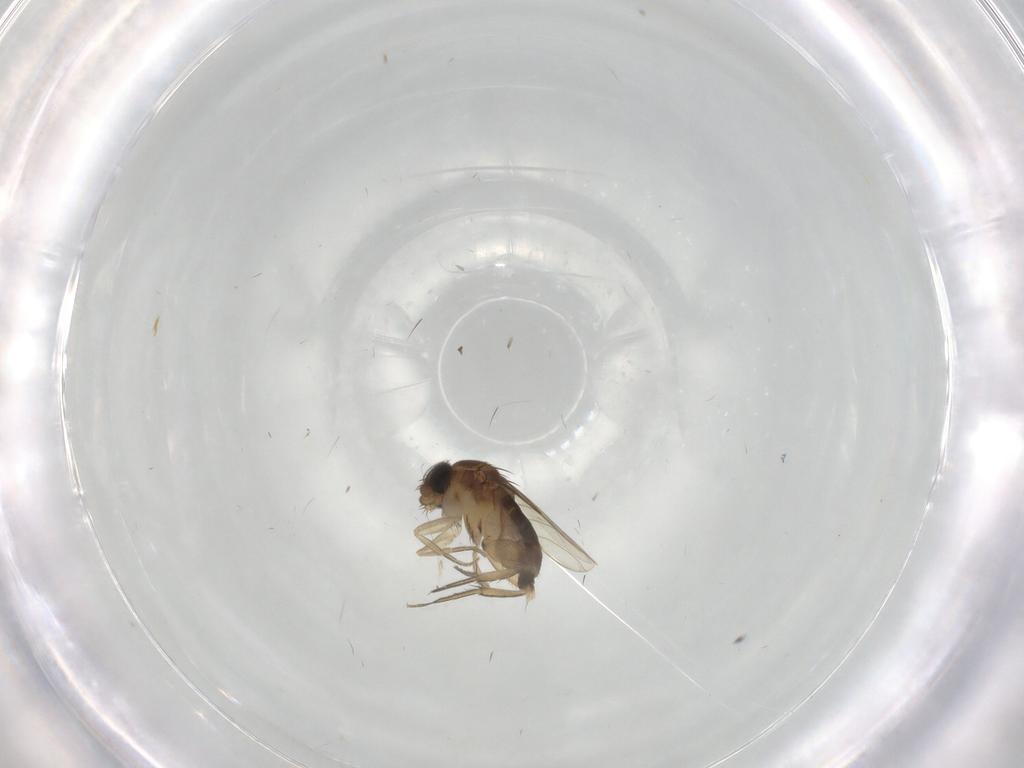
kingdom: Animalia
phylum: Arthropoda
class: Insecta
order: Diptera
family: Phoridae
